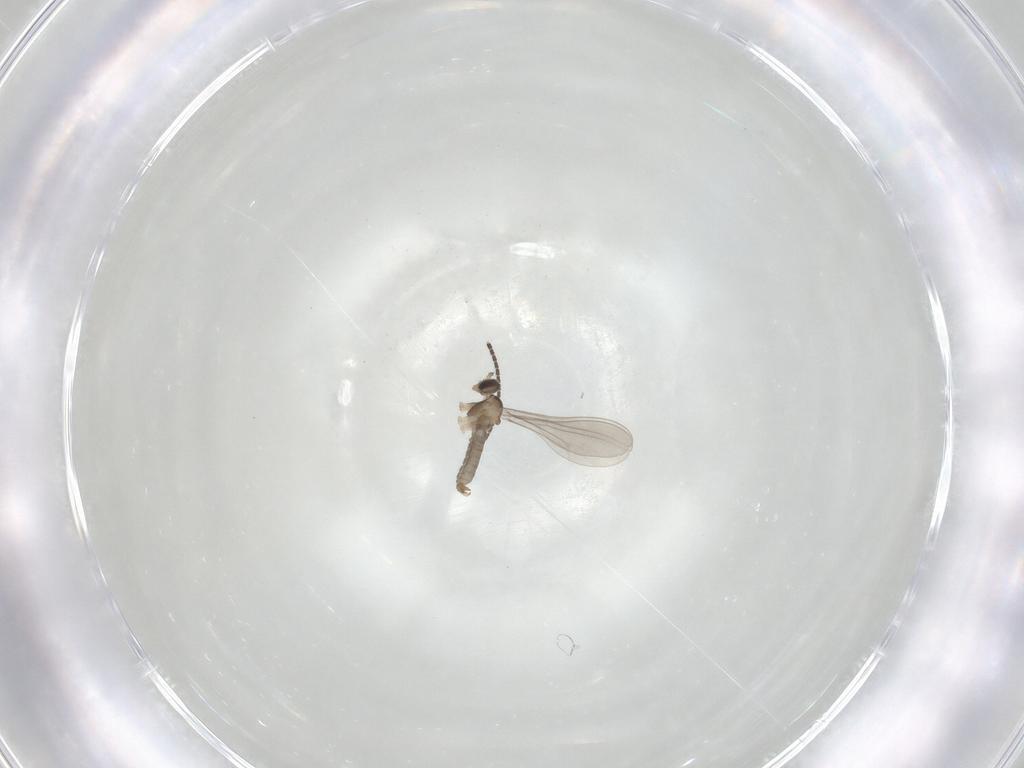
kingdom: Animalia
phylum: Arthropoda
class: Insecta
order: Diptera
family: Cecidomyiidae
